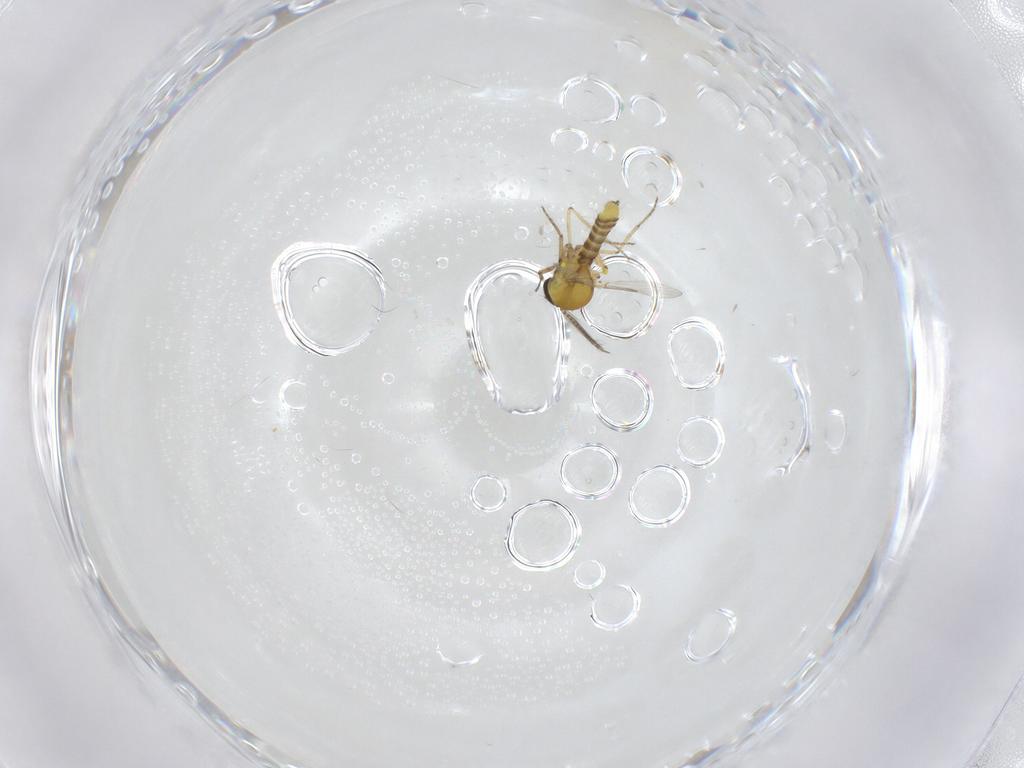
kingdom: Animalia
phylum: Arthropoda
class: Insecta
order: Diptera
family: Ceratopogonidae
